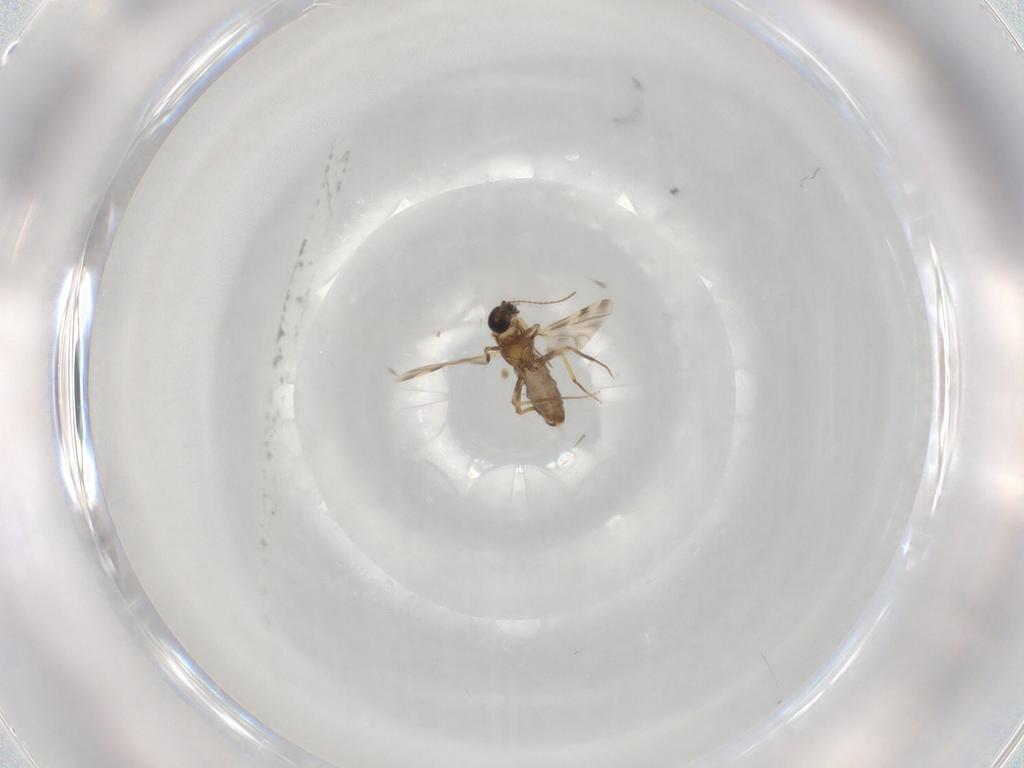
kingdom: Animalia
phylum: Arthropoda
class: Insecta
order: Diptera
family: Ceratopogonidae
